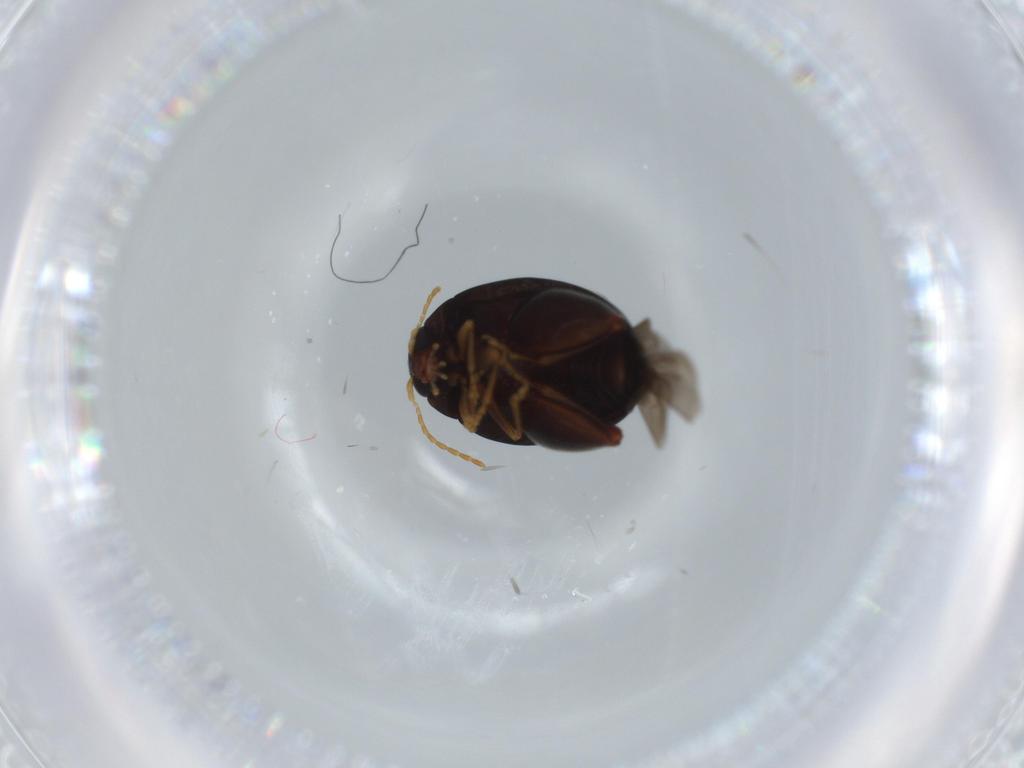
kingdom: Animalia
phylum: Arthropoda
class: Insecta
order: Coleoptera
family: Chrysomelidae
